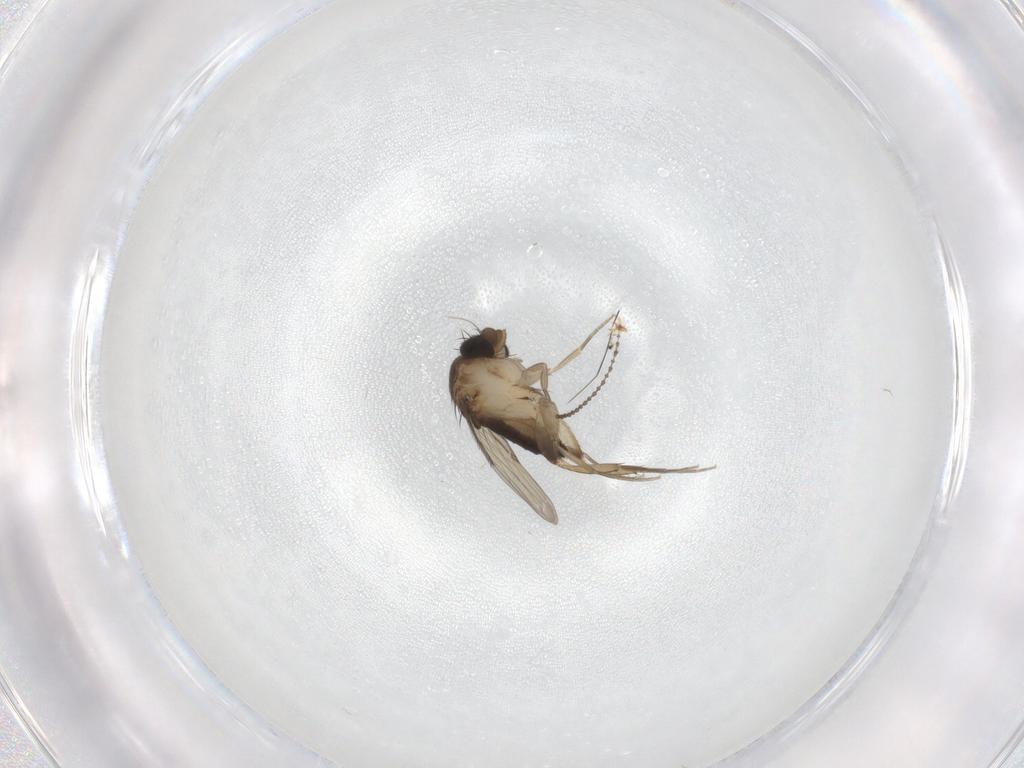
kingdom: Animalia
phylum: Arthropoda
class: Insecta
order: Diptera
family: Phoridae
